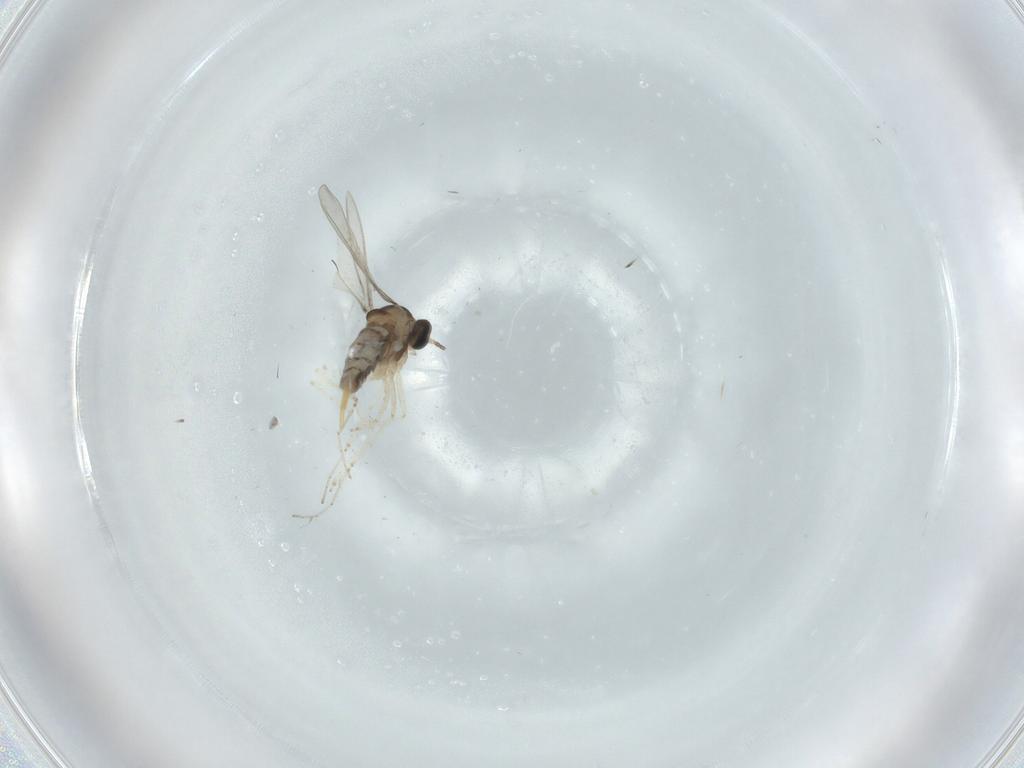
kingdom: Animalia
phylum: Arthropoda
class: Insecta
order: Diptera
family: Cecidomyiidae
